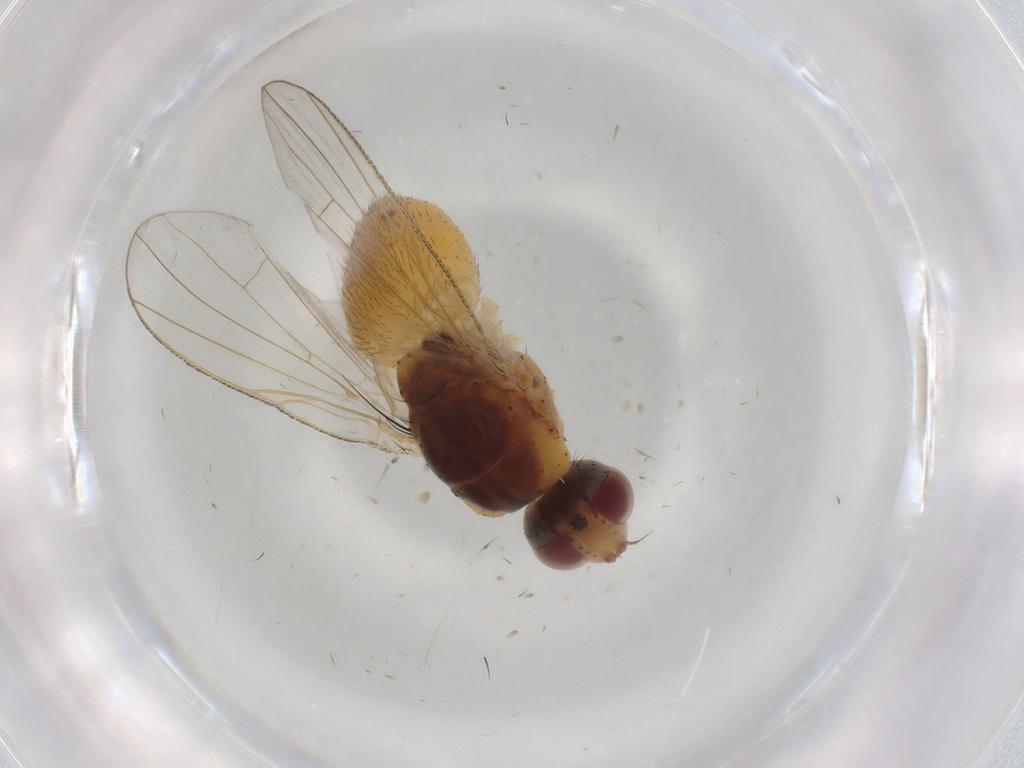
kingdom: Animalia
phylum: Arthropoda
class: Insecta
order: Diptera
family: Muscidae
